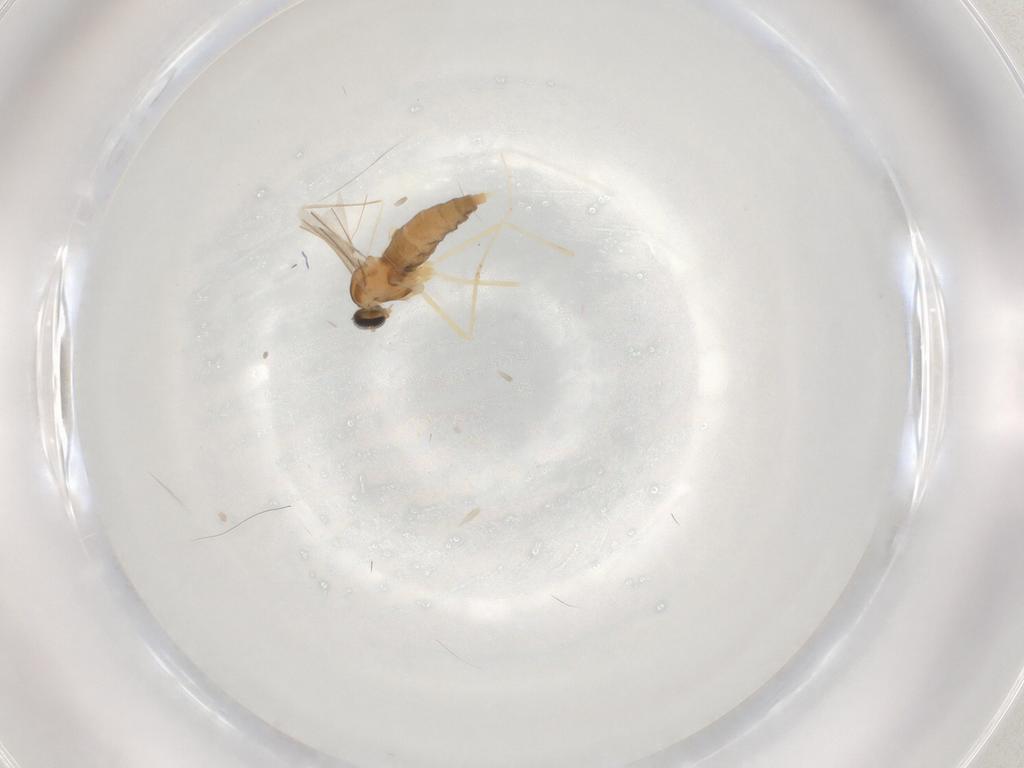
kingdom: Animalia
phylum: Arthropoda
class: Insecta
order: Diptera
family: Cecidomyiidae
